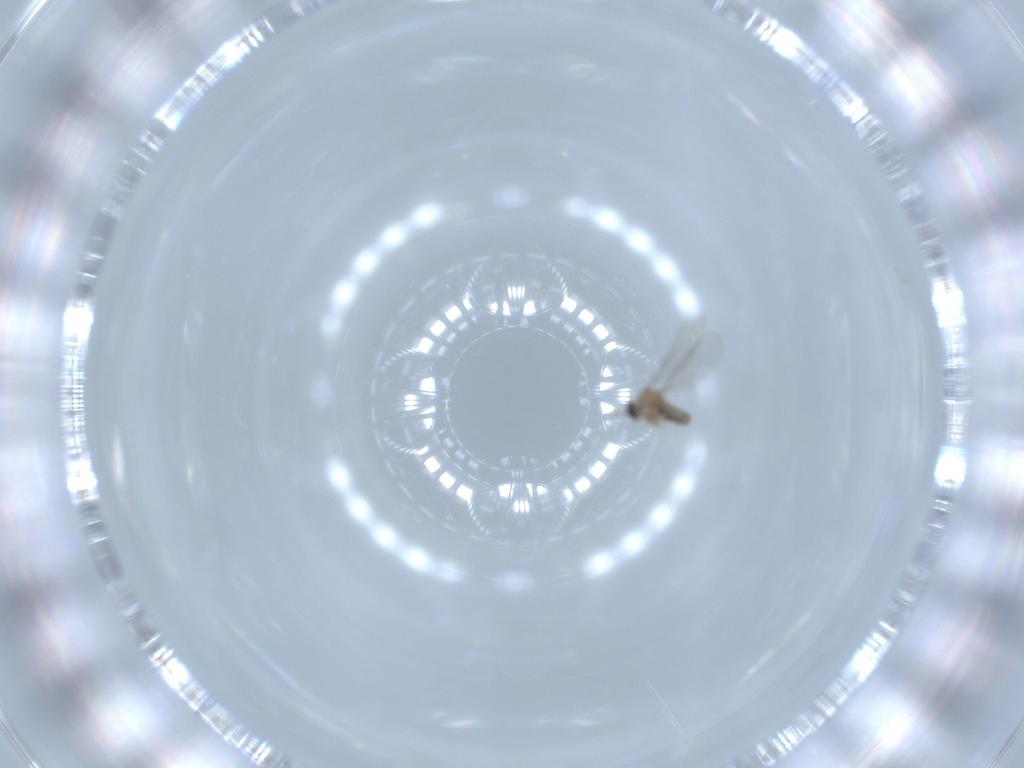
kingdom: Animalia
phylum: Arthropoda
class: Insecta
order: Diptera
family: Cecidomyiidae
